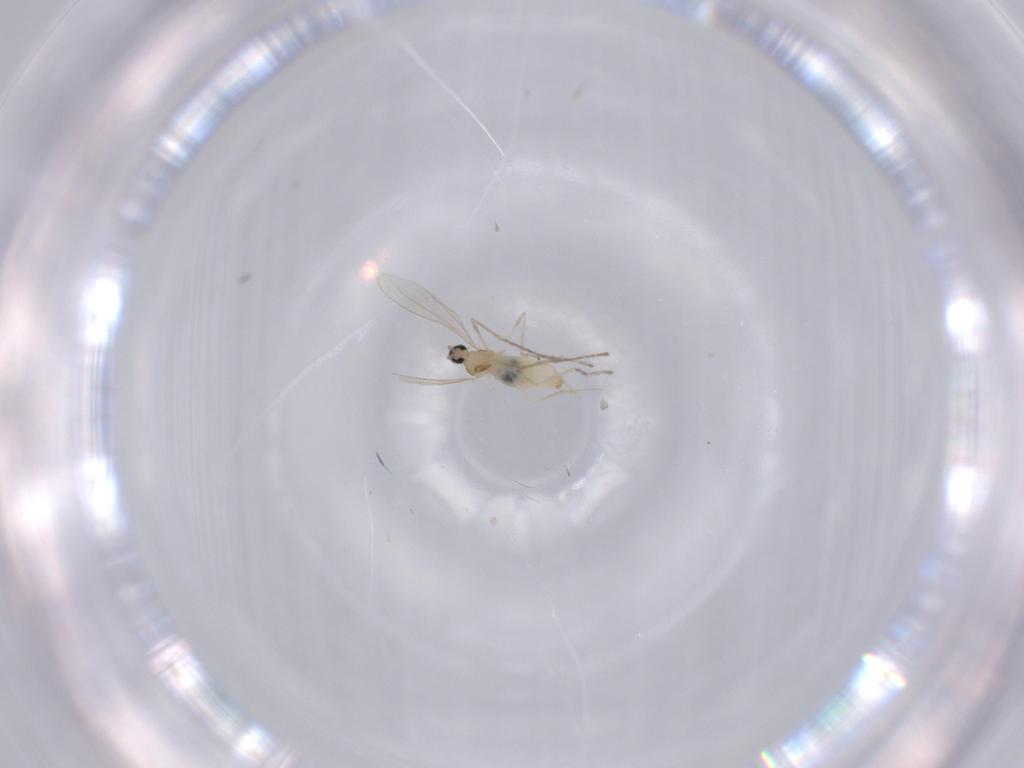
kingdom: Animalia
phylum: Arthropoda
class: Insecta
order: Diptera
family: Cecidomyiidae
